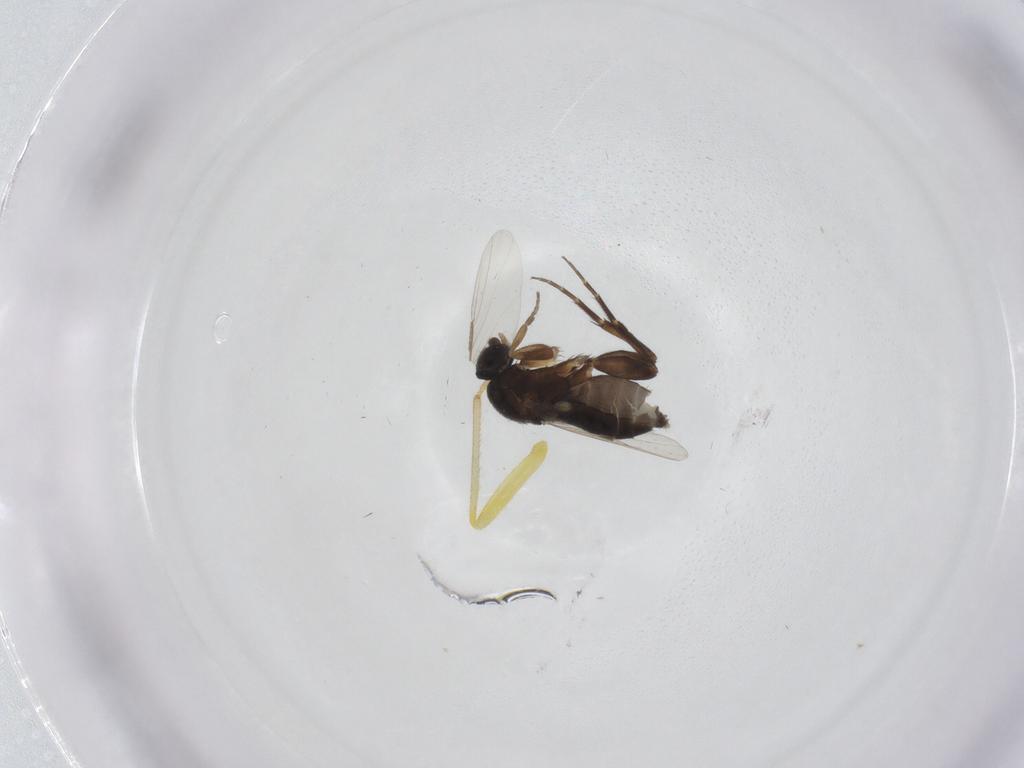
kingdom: Animalia
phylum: Arthropoda
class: Insecta
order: Diptera
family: Phoridae
